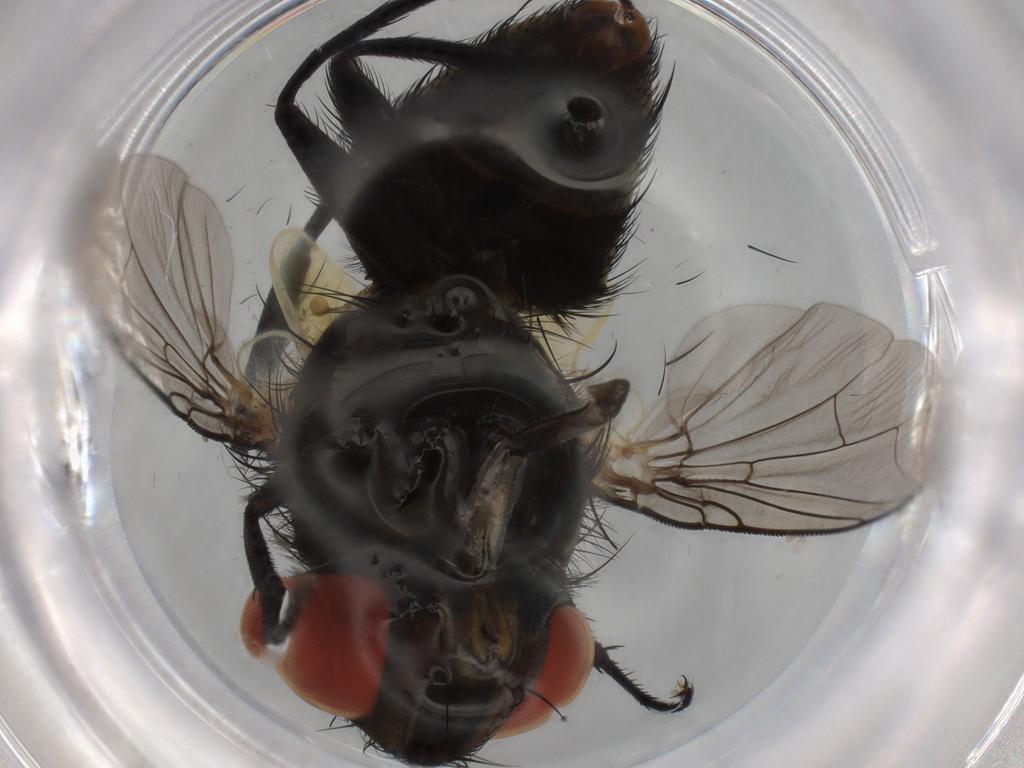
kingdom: Animalia
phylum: Arthropoda
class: Insecta
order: Diptera
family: Sarcophagidae
